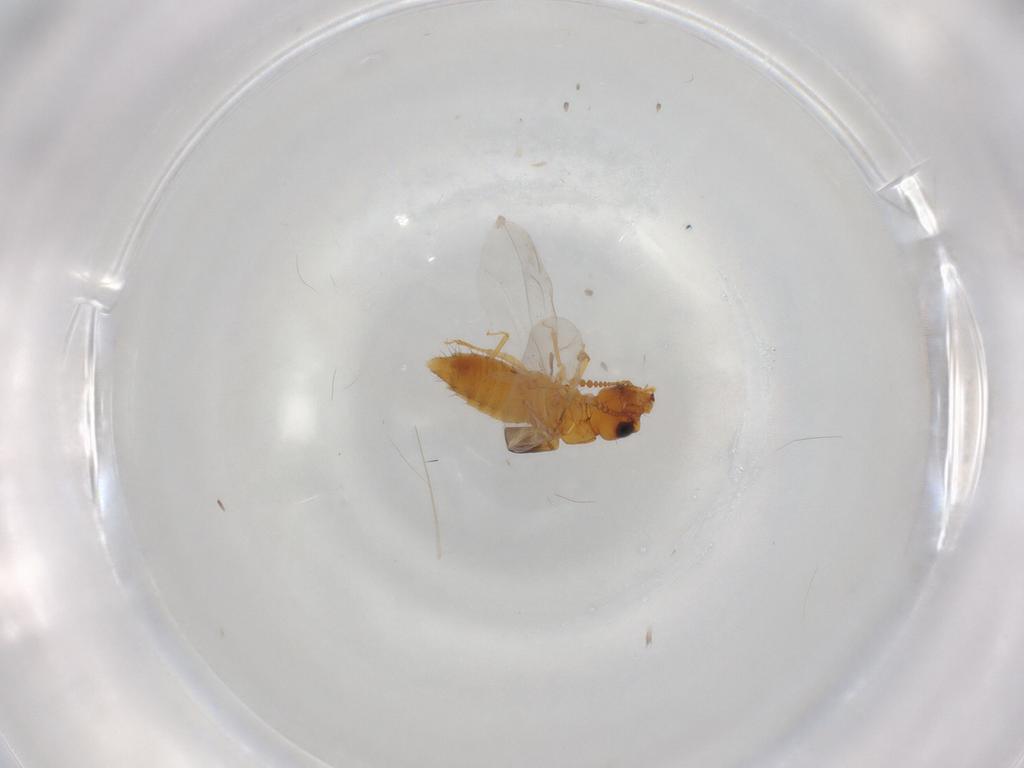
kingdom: Animalia
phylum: Arthropoda
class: Insecta
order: Coleoptera
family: Staphylinidae
